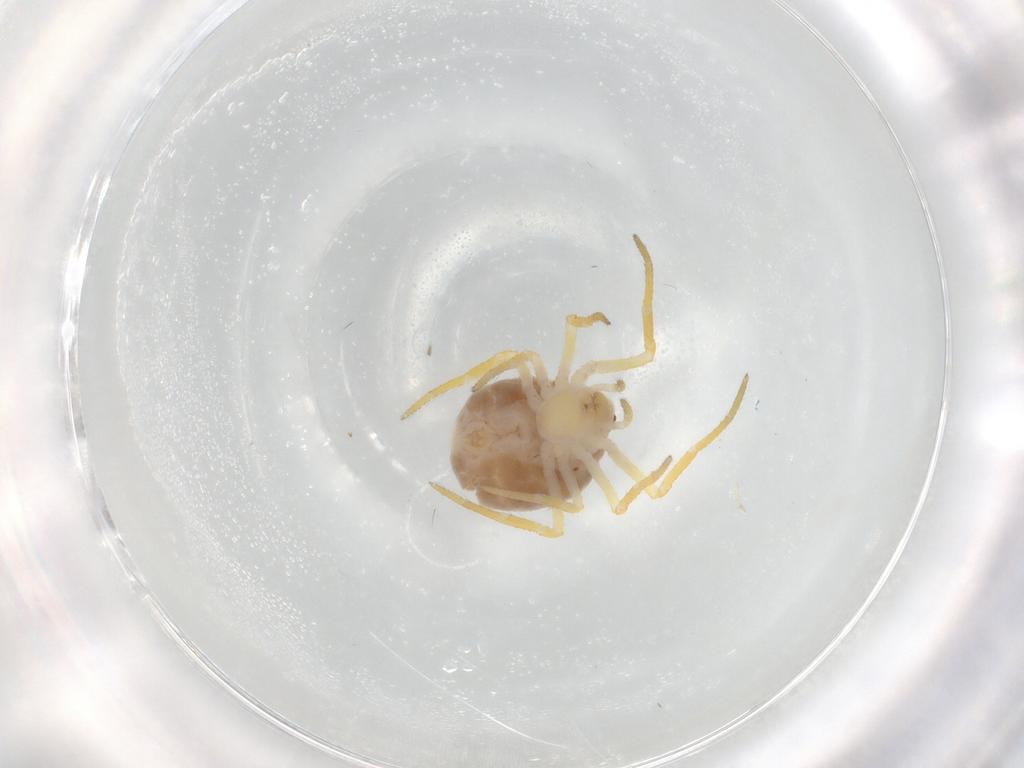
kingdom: Animalia
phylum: Arthropoda
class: Arachnida
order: Araneae
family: Theridiidae
